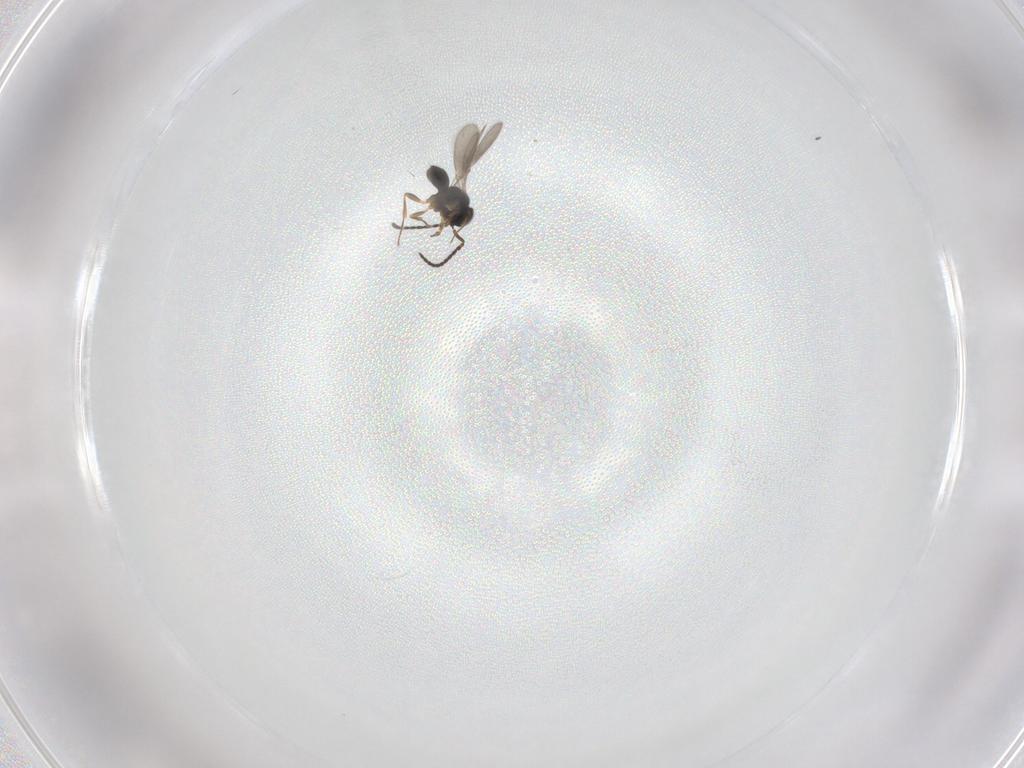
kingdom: Animalia
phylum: Arthropoda
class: Insecta
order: Hymenoptera
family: Scelionidae
